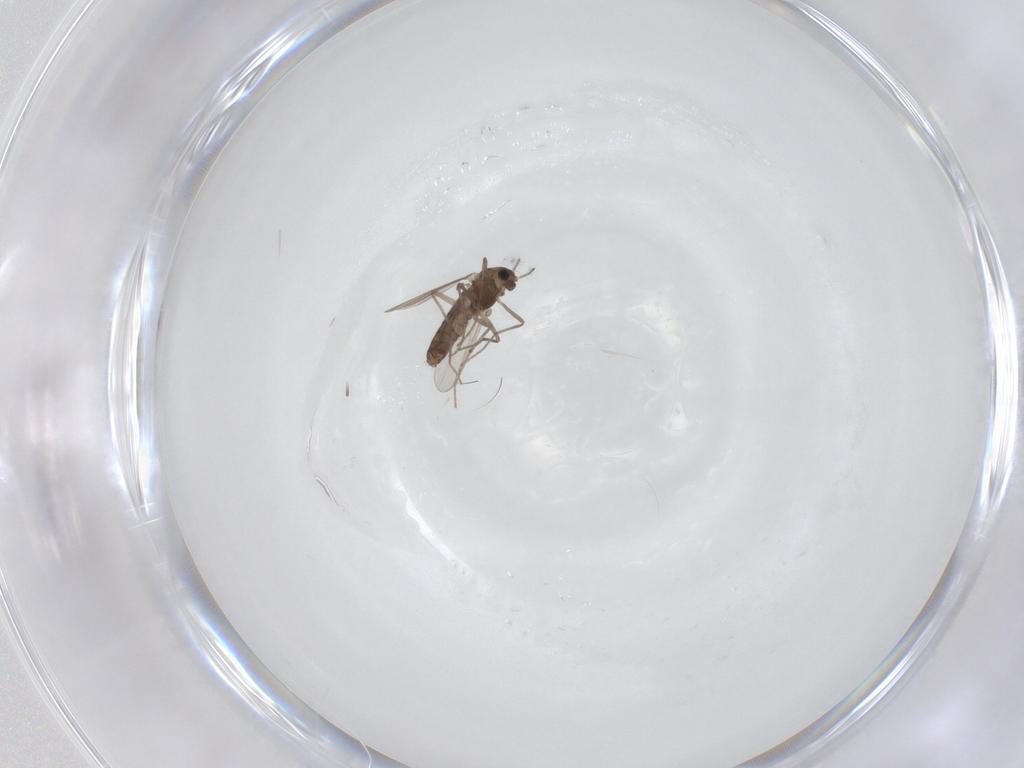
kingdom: Animalia
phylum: Arthropoda
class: Insecta
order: Diptera
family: Chironomidae
